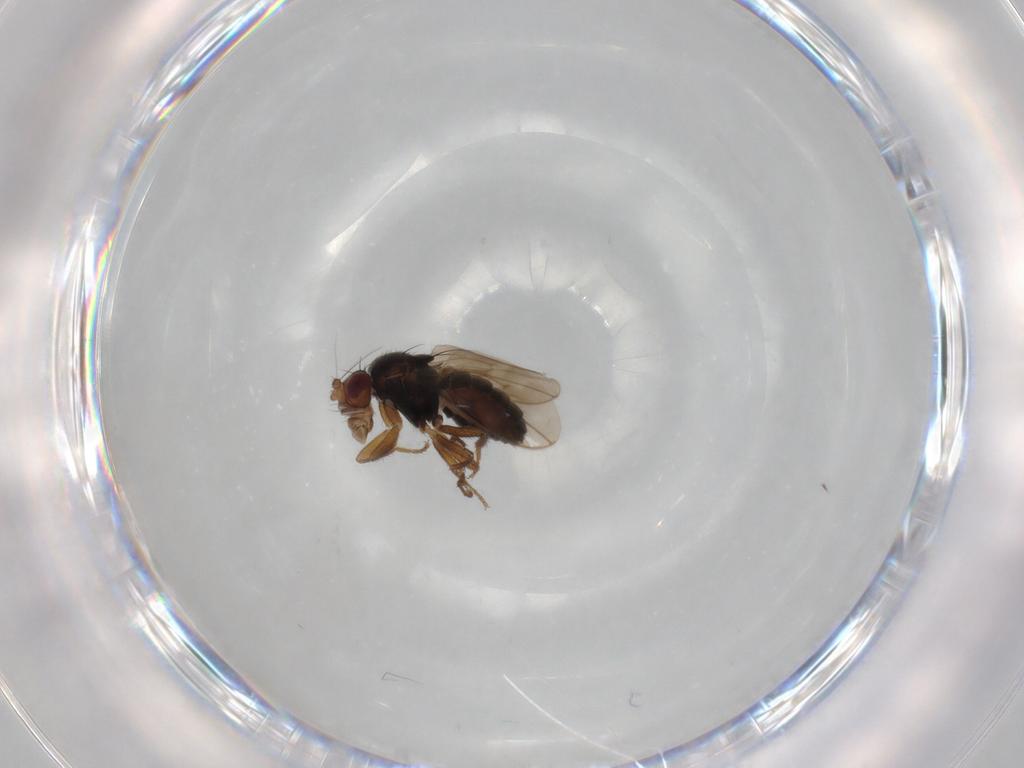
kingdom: Animalia
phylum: Arthropoda
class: Insecta
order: Diptera
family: Sphaeroceridae
